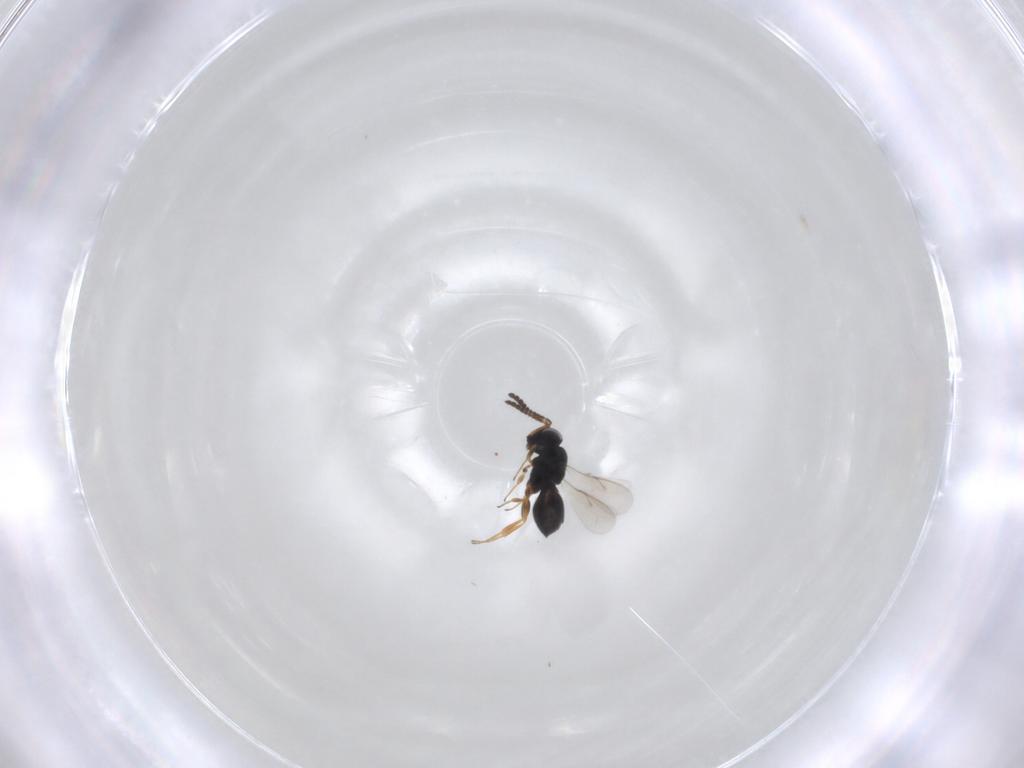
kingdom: Animalia
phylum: Arthropoda
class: Insecta
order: Hymenoptera
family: Scelionidae
